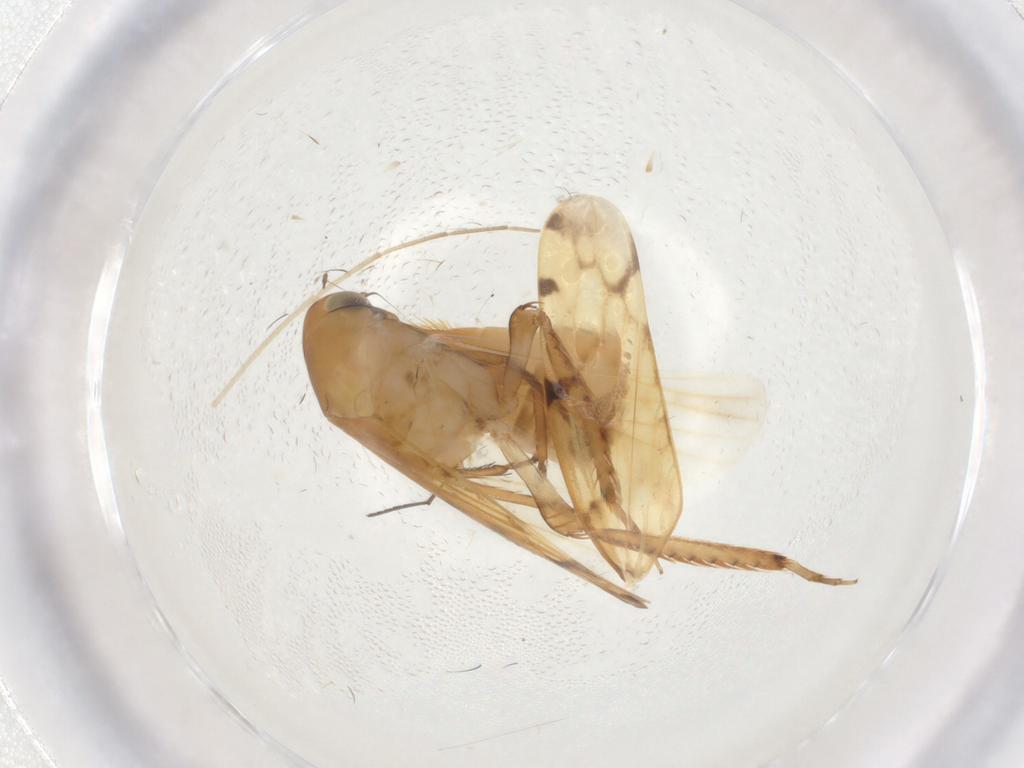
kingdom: Animalia
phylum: Arthropoda
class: Insecta
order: Hemiptera
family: Cicadellidae
